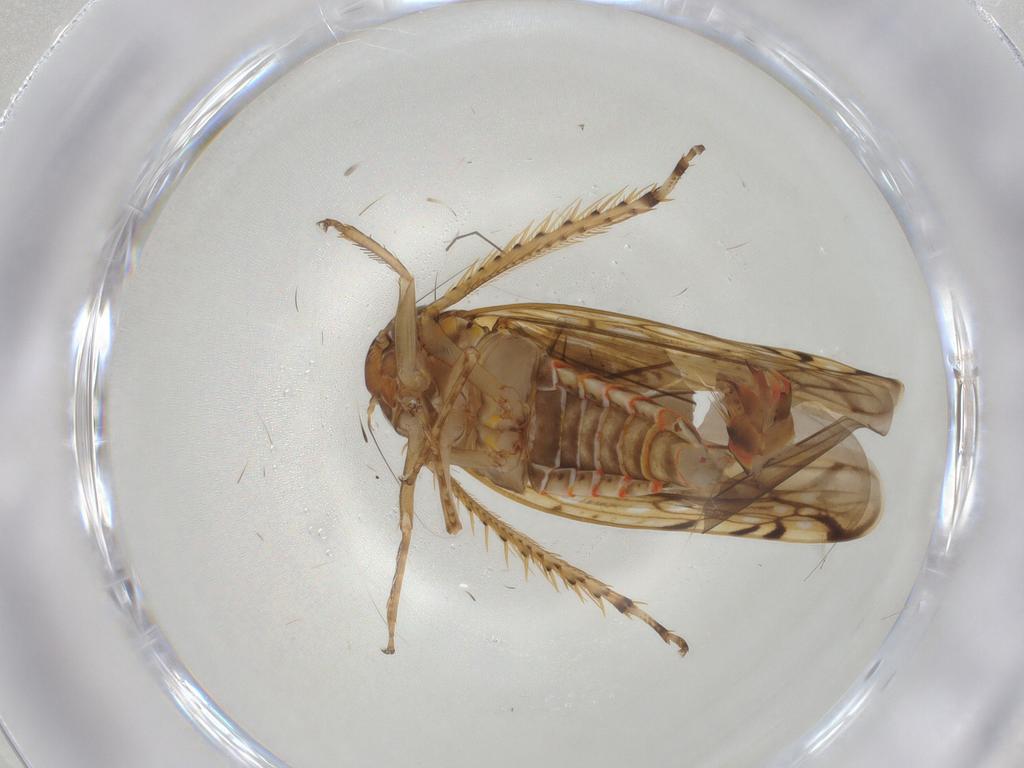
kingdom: Animalia
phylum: Arthropoda
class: Insecta
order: Hemiptera
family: Cicadellidae
